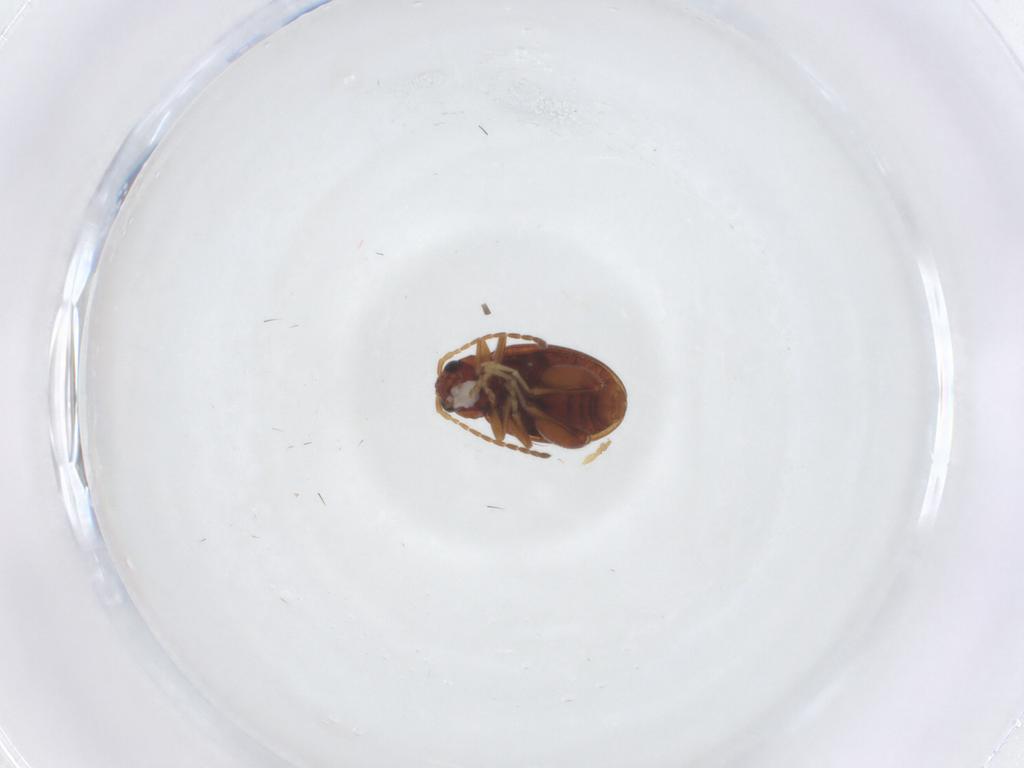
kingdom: Animalia
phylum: Arthropoda
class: Insecta
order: Coleoptera
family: Chrysomelidae
